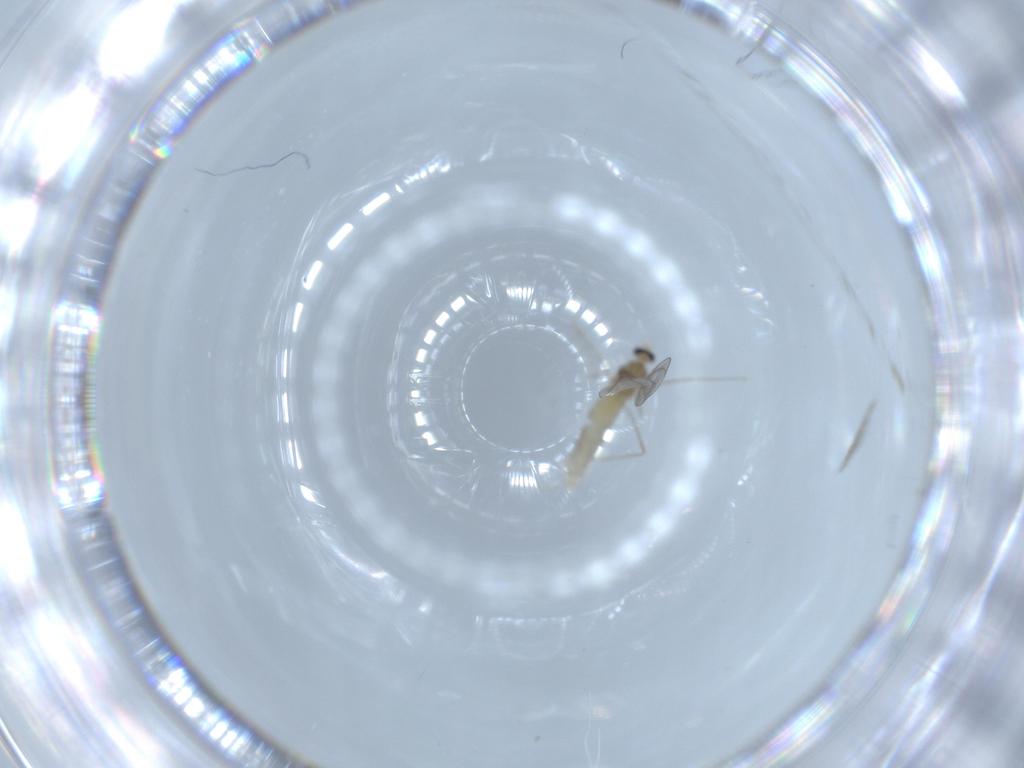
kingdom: Animalia
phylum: Arthropoda
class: Insecta
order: Diptera
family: Cecidomyiidae
